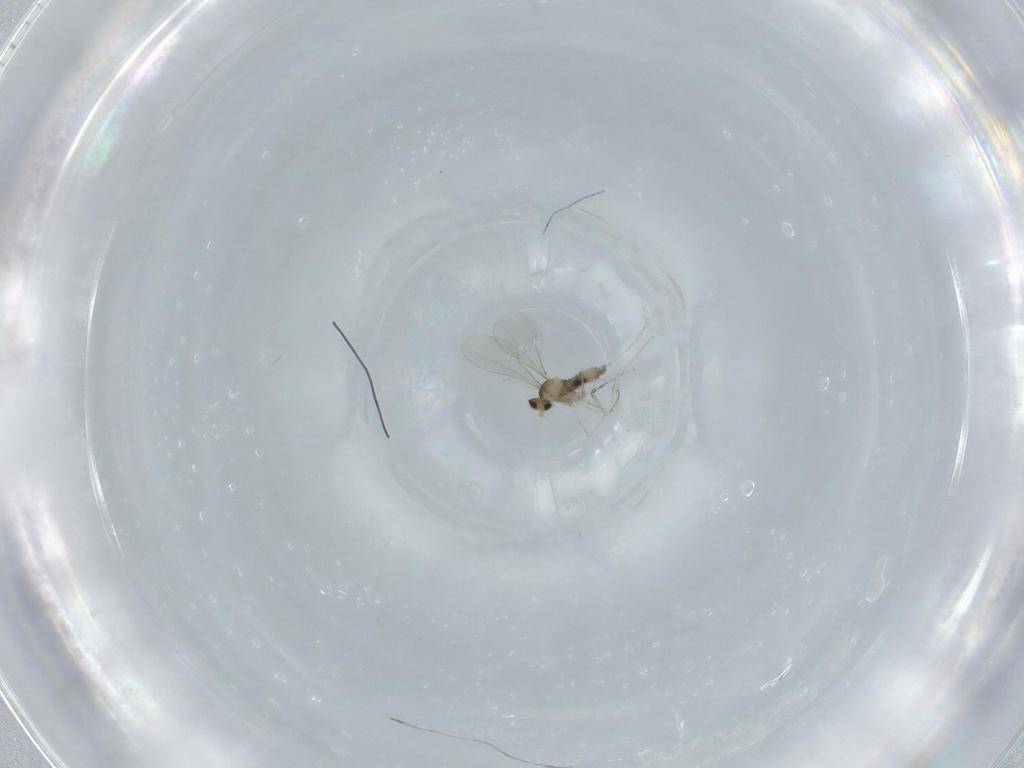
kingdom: Animalia
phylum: Arthropoda
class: Insecta
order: Diptera
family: Cecidomyiidae
